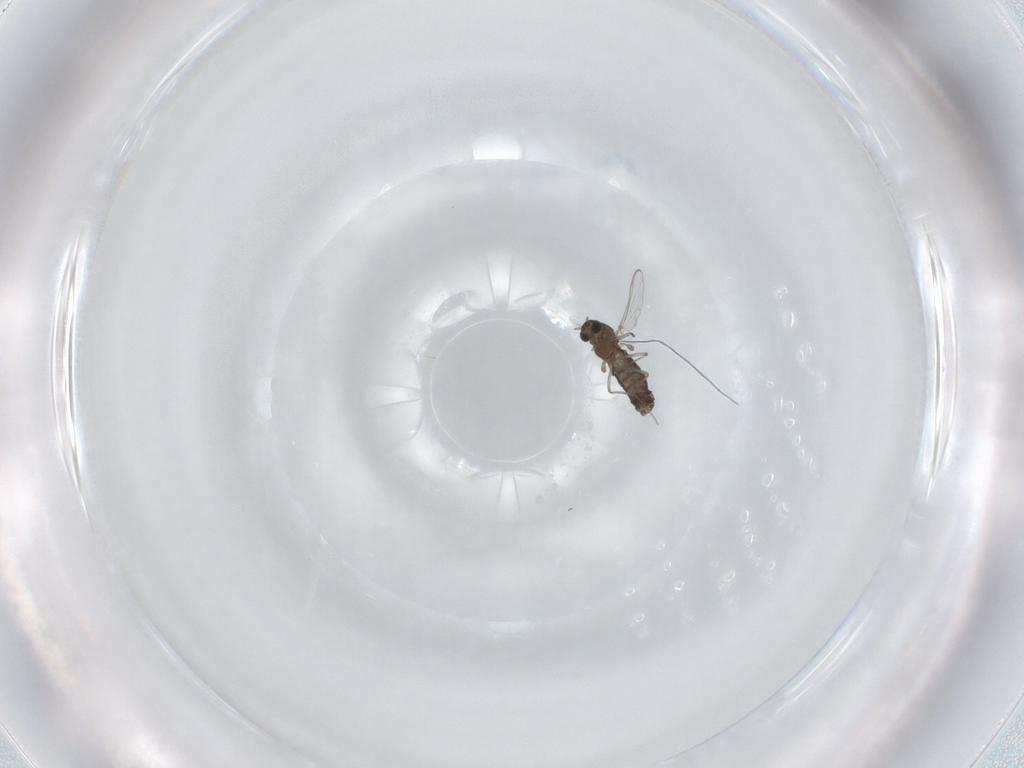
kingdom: Animalia
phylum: Arthropoda
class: Insecta
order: Diptera
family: Chironomidae
